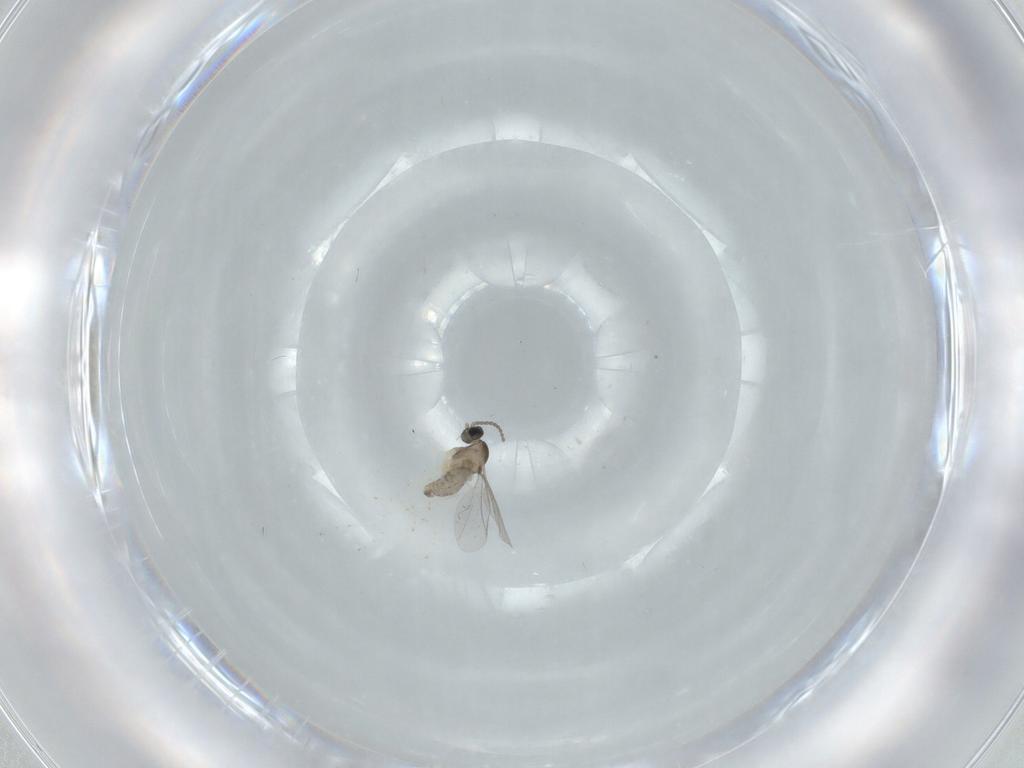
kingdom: Animalia
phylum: Arthropoda
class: Insecta
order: Diptera
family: Cecidomyiidae
